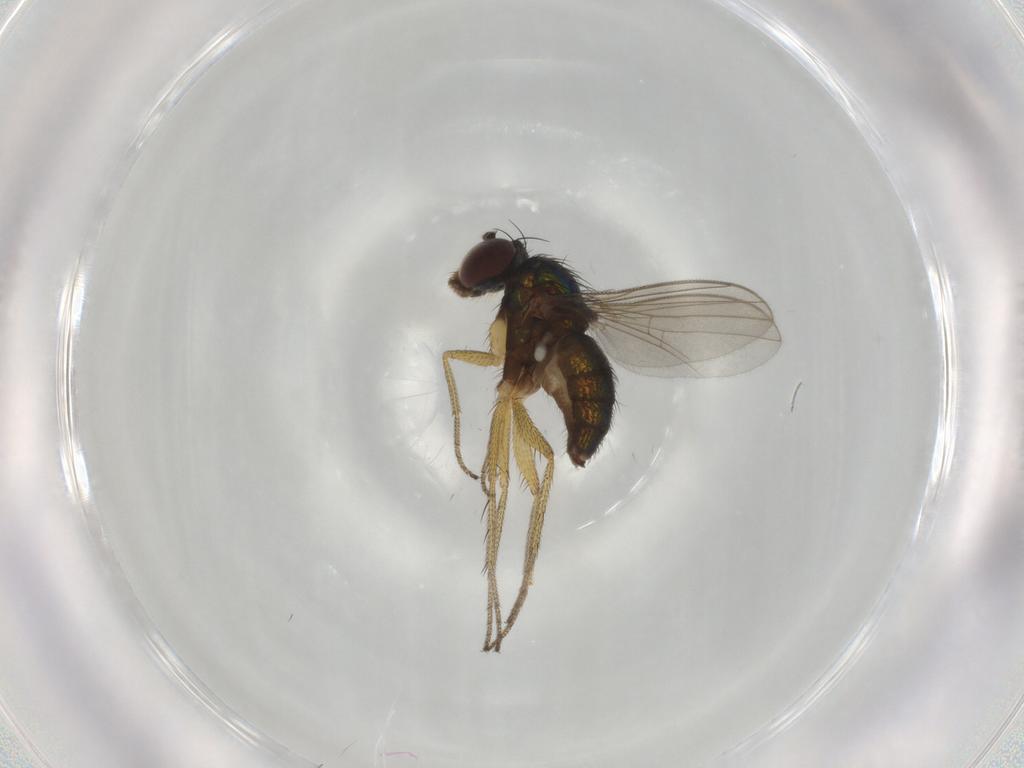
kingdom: Animalia
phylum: Arthropoda
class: Insecta
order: Diptera
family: Dolichopodidae
